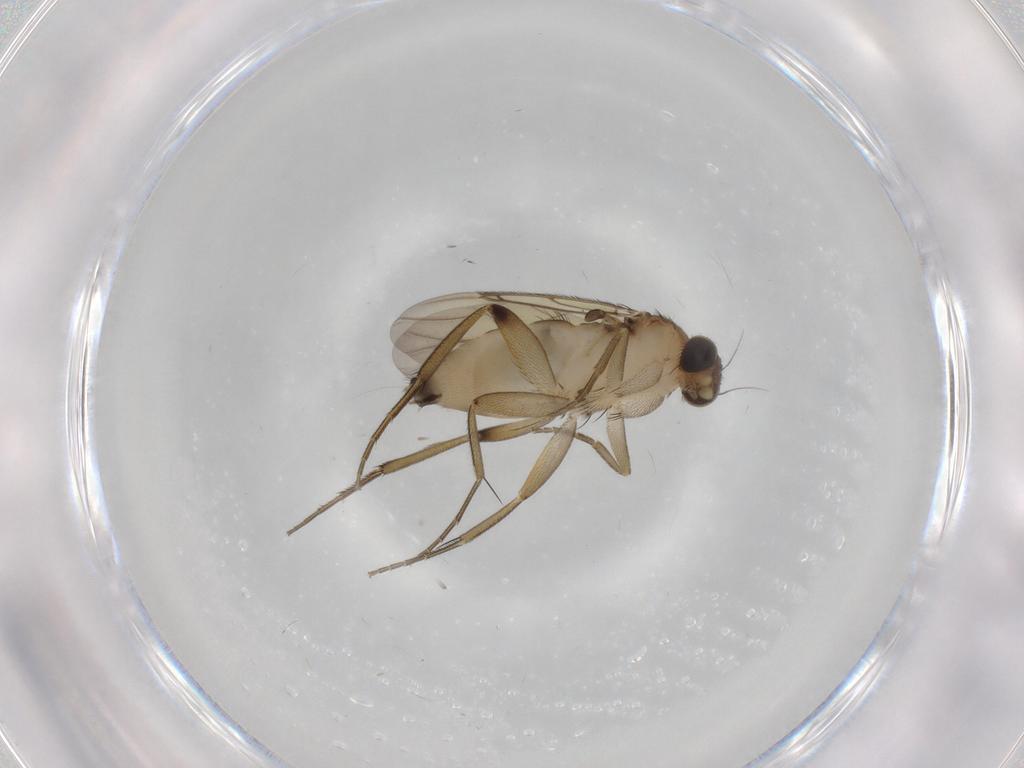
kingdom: Animalia
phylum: Arthropoda
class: Insecta
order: Diptera
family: Phoridae
